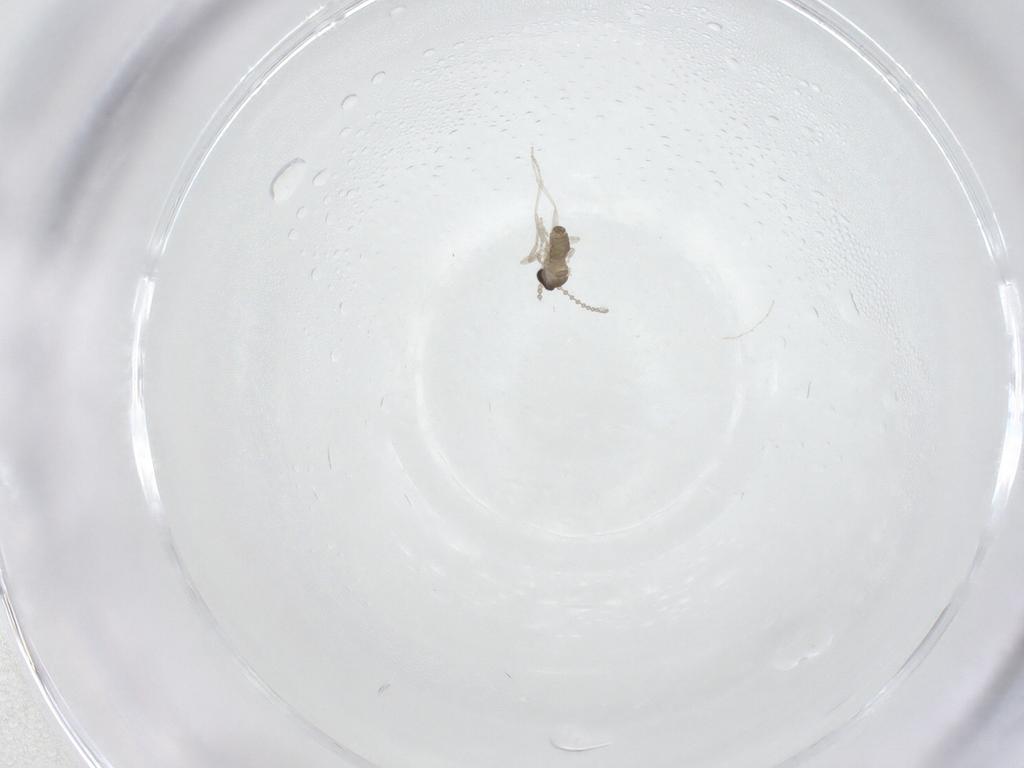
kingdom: Animalia
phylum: Arthropoda
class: Insecta
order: Diptera
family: Cecidomyiidae
